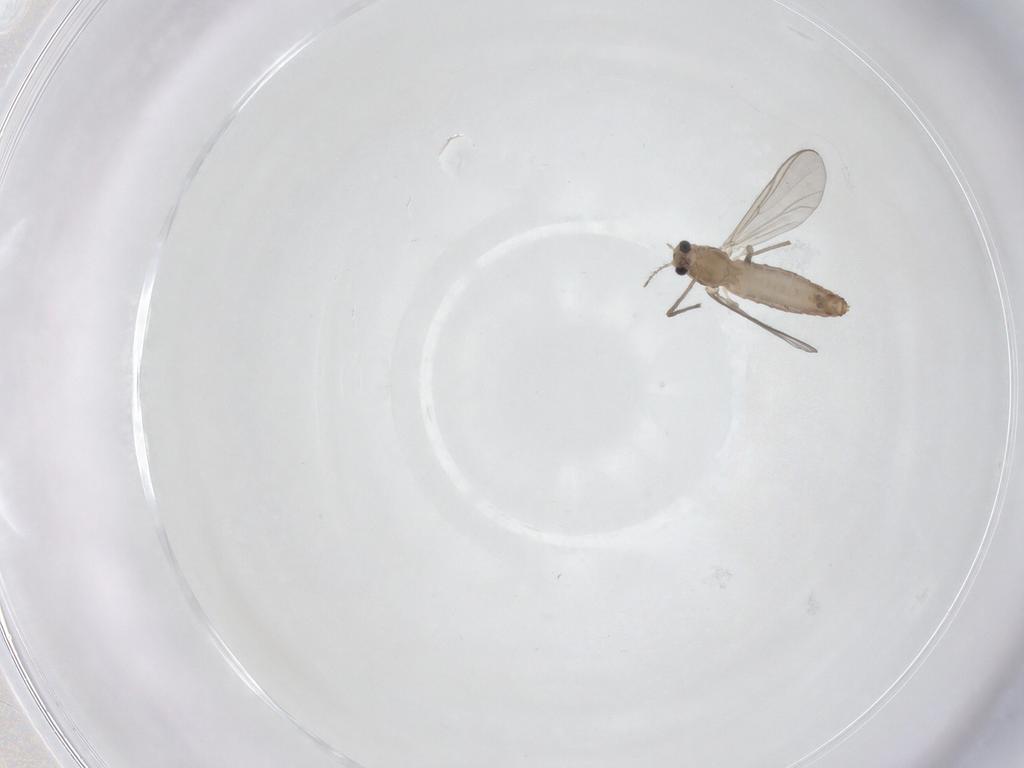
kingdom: Animalia
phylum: Arthropoda
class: Insecta
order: Diptera
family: Chironomidae
